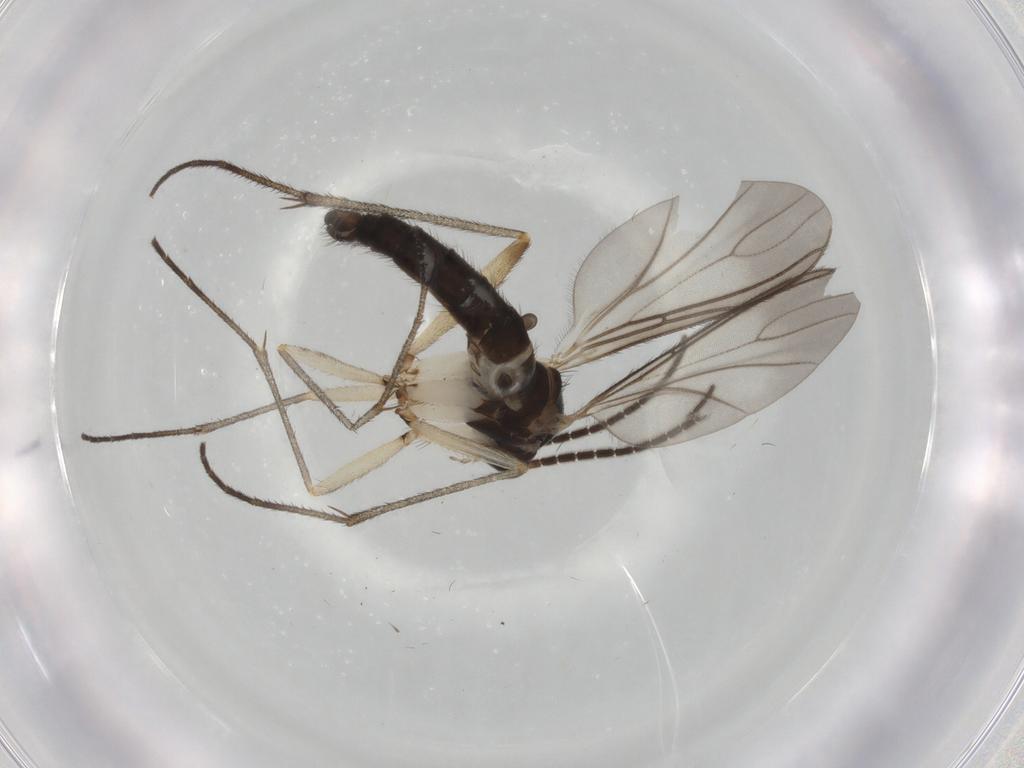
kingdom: Animalia
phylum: Arthropoda
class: Insecta
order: Diptera
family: Sciaridae
